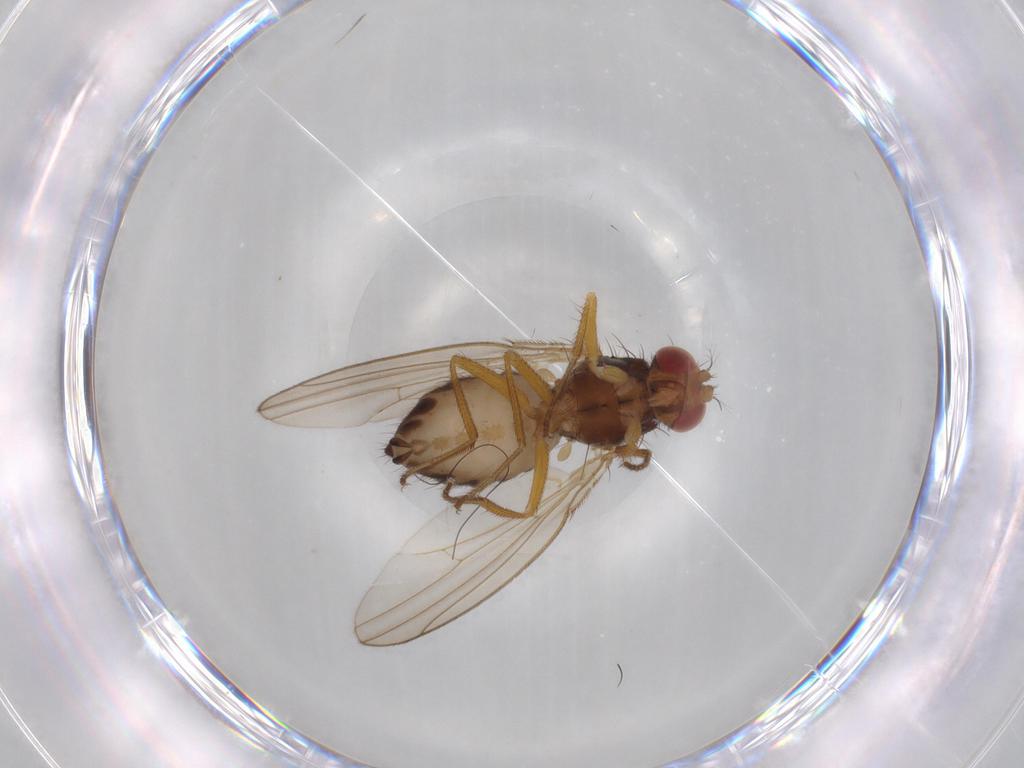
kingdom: Animalia
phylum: Arthropoda
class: Insecta
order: Diptera
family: Drosophilidae
